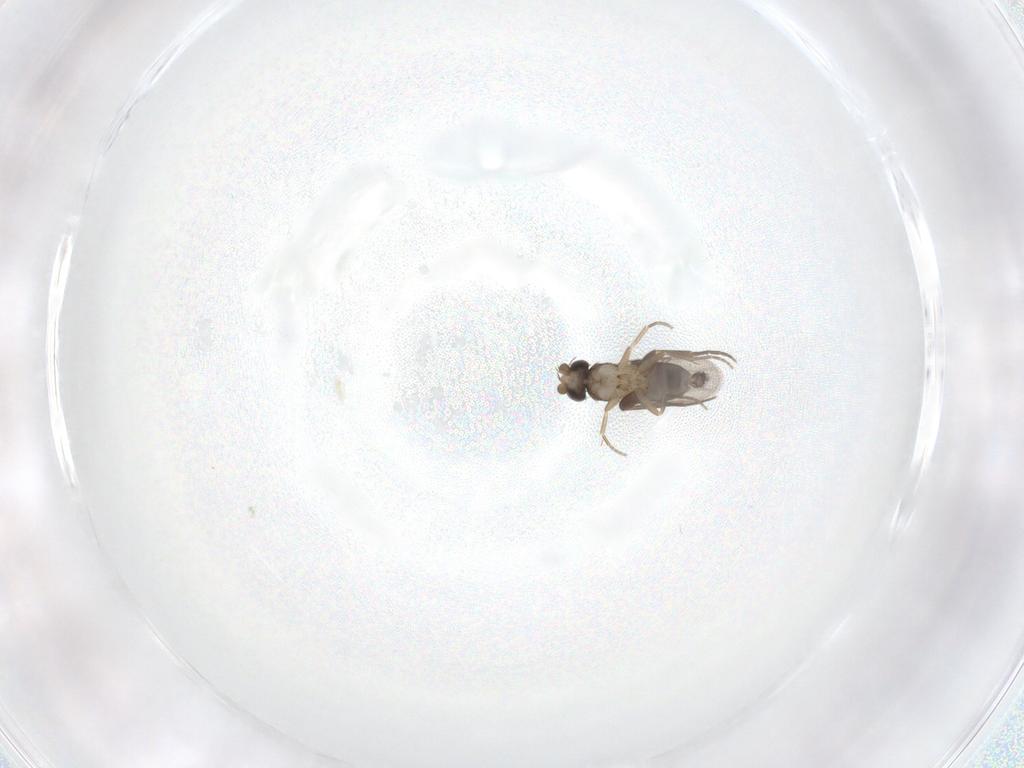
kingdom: Animalia
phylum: Arthropoda
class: Insecta
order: Diptera
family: Phoridae
